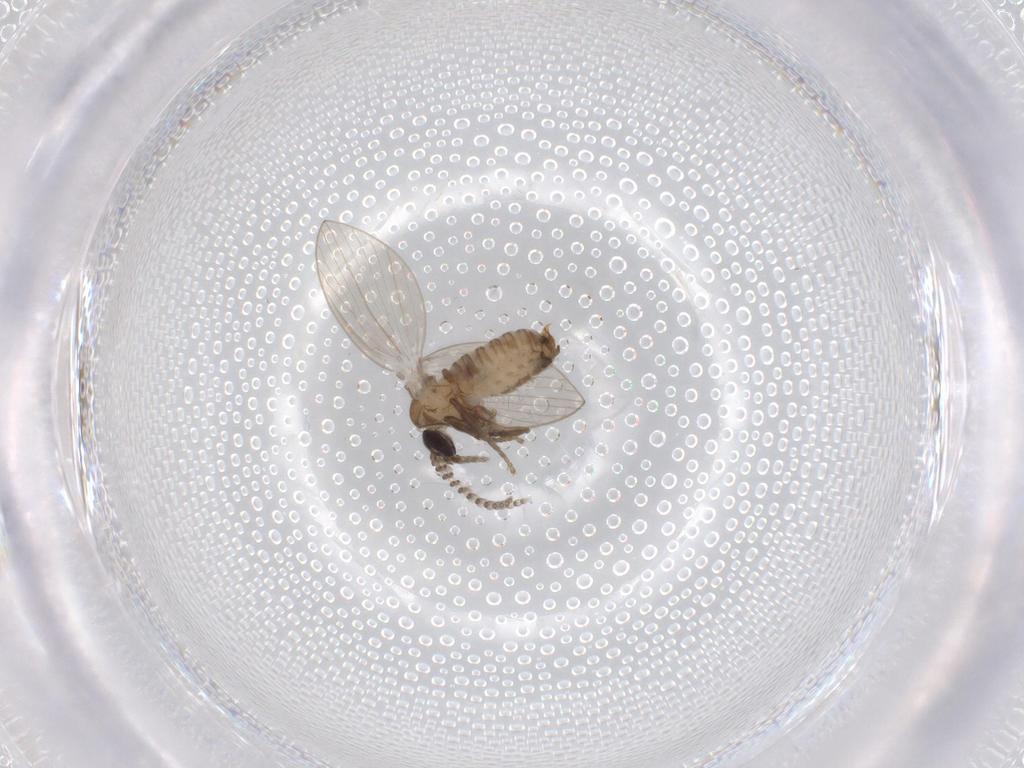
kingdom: Animalia
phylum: Arthropoda
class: Insecta
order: Diptera
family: Psychodidae
